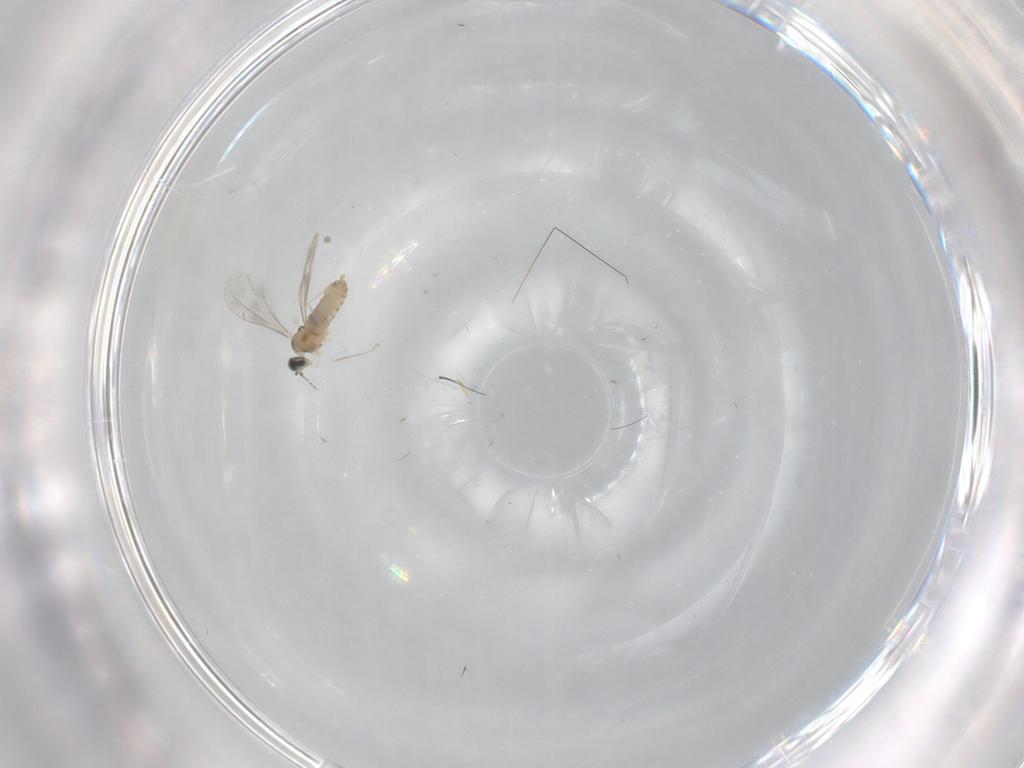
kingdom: Animalia
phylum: Arthropoda
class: Insecta
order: Diptera
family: Cecidomyiidae
